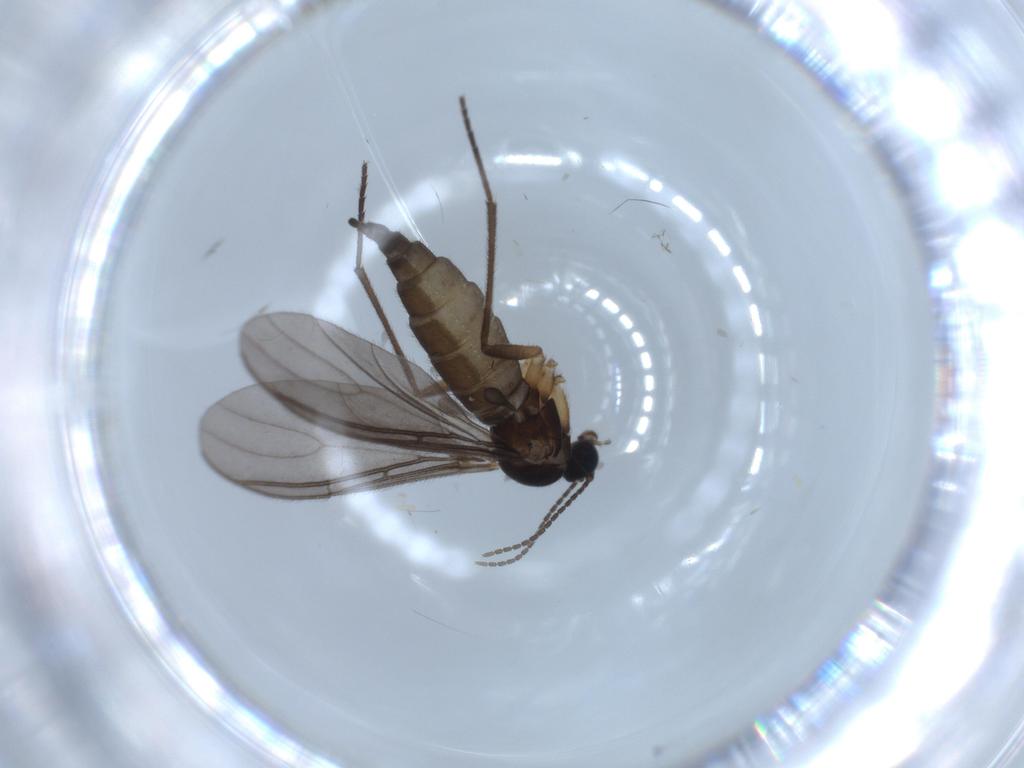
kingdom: Animalia
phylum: Arthropoda
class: Insecta
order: Diptera
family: Sciaridae
